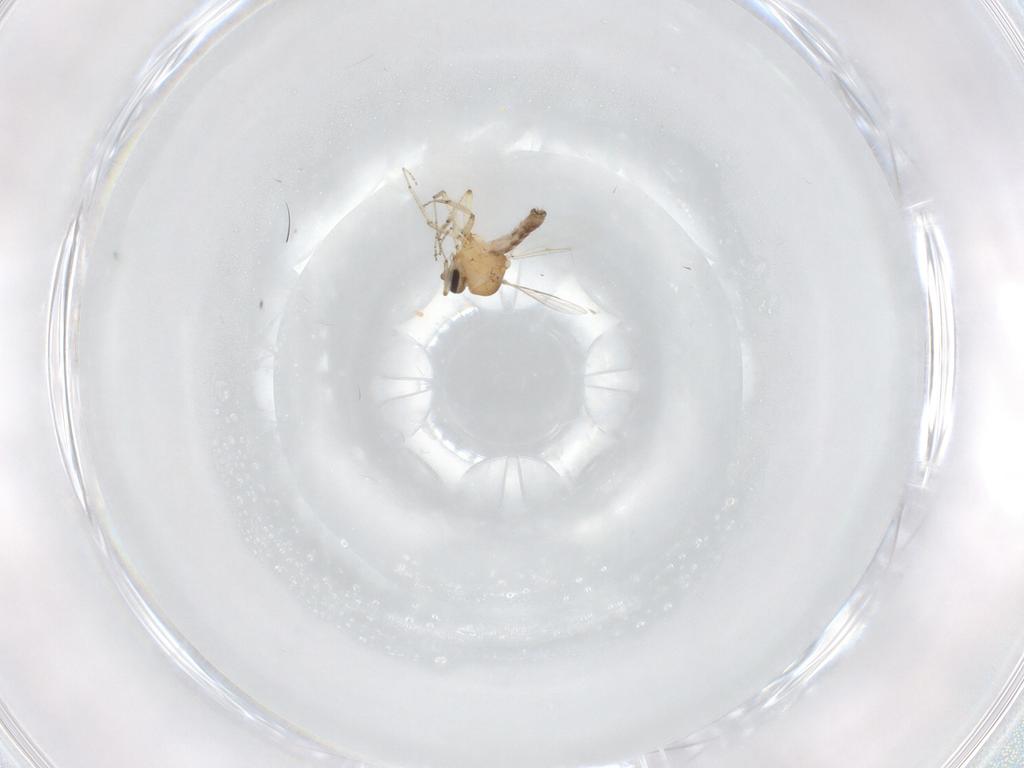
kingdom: Animalia
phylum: Arthropoda
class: Insecta
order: Diptera
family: Ceratopogonidae
